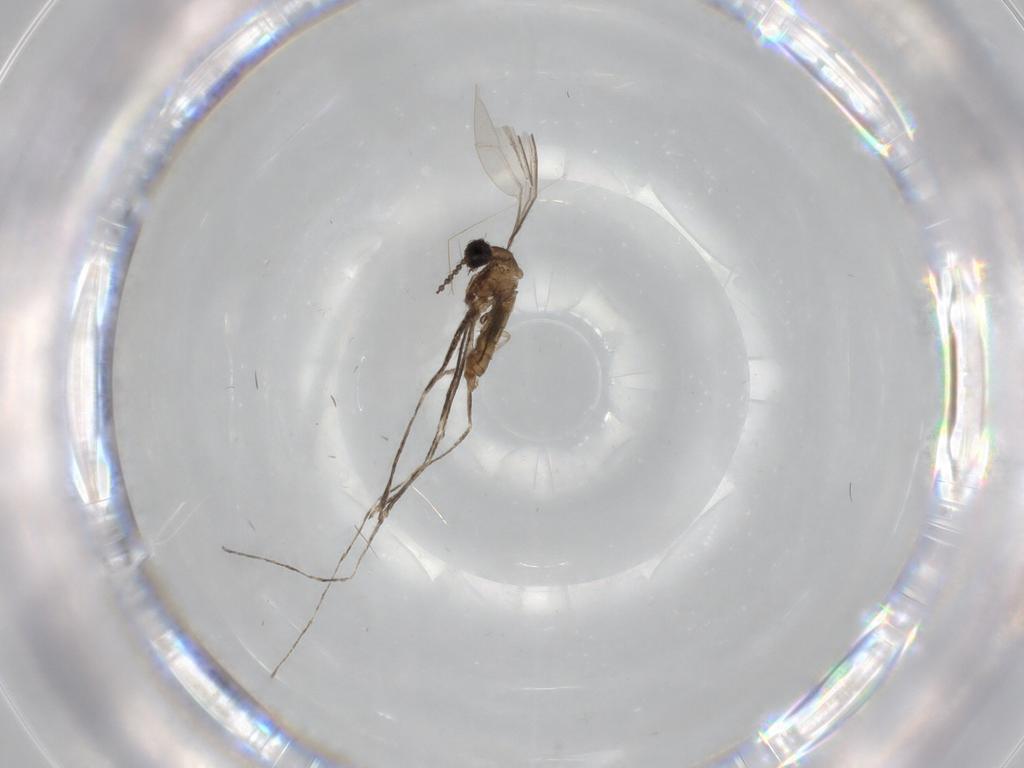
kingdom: Animalia
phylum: Arthropoda
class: Insecta
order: Diptera
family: Cecidomyiidae
